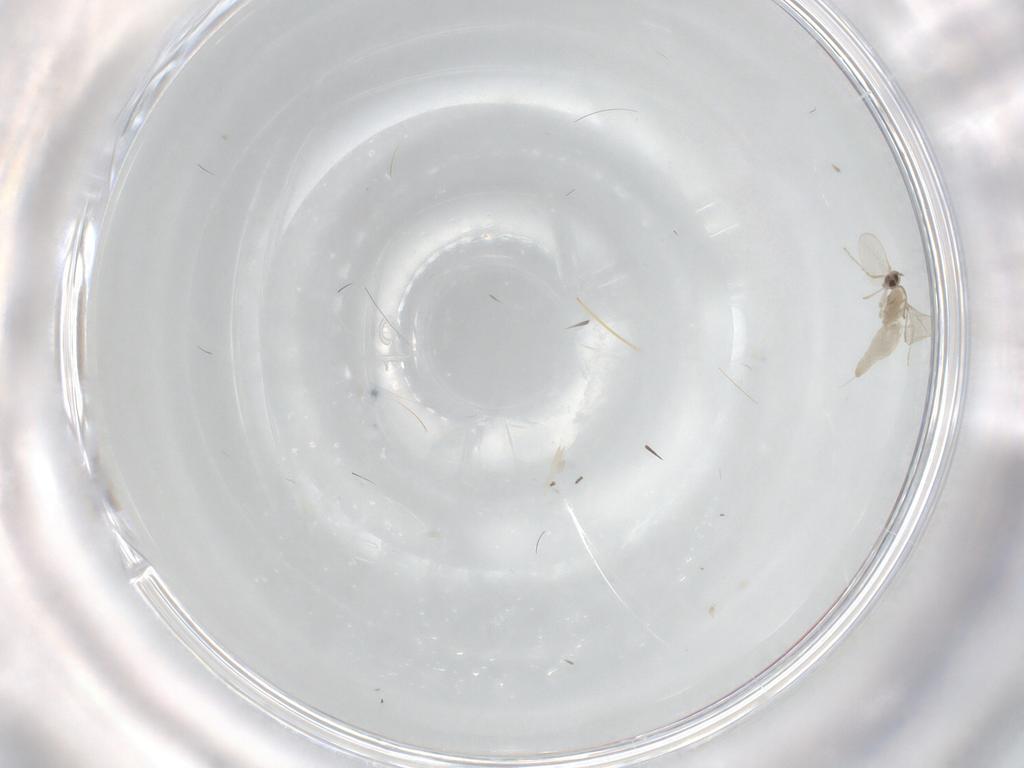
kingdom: Animalia
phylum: Arthropoda
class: Insecta
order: Diptera
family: Cecidomyiidae
